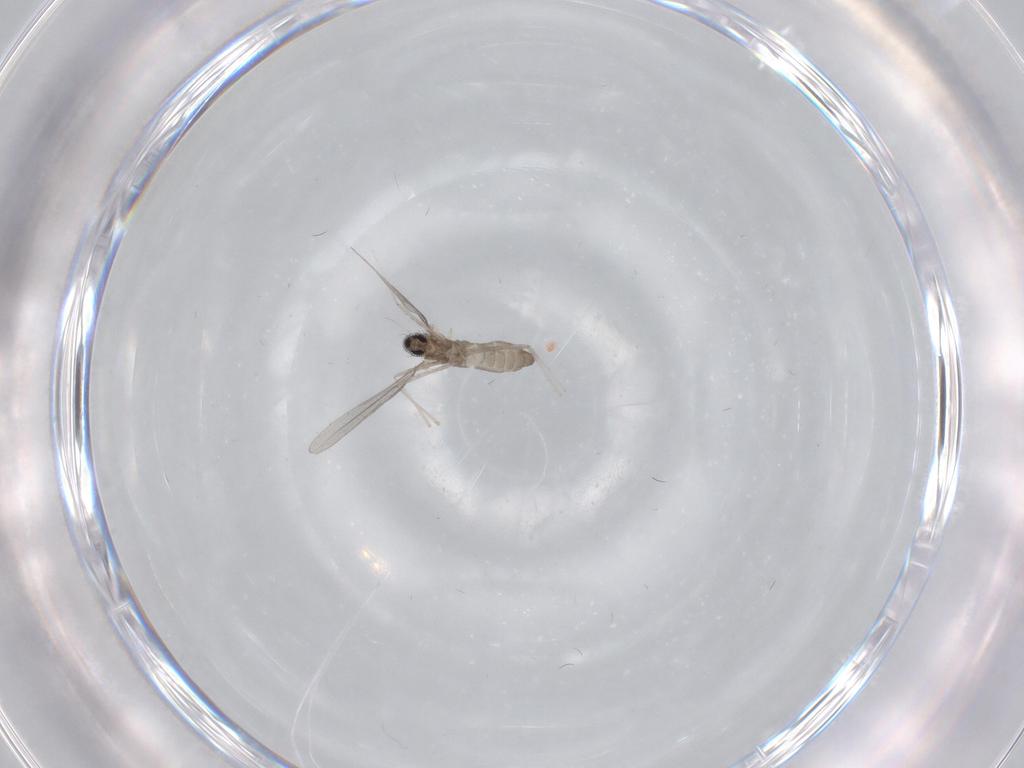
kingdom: Animalia
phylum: Arthropoda
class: Insecta
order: Diptera
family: Cecidomyiidae
